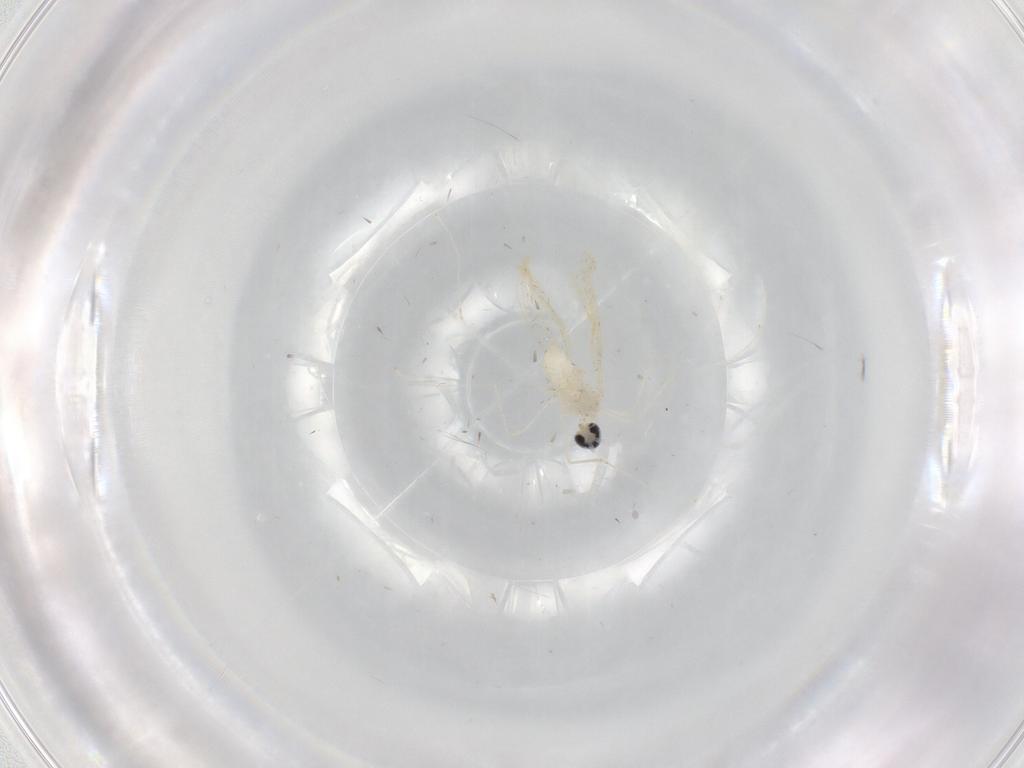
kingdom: Animalia
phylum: Arthropoda
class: Insecta
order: Diptera
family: Cecidomyiidae
